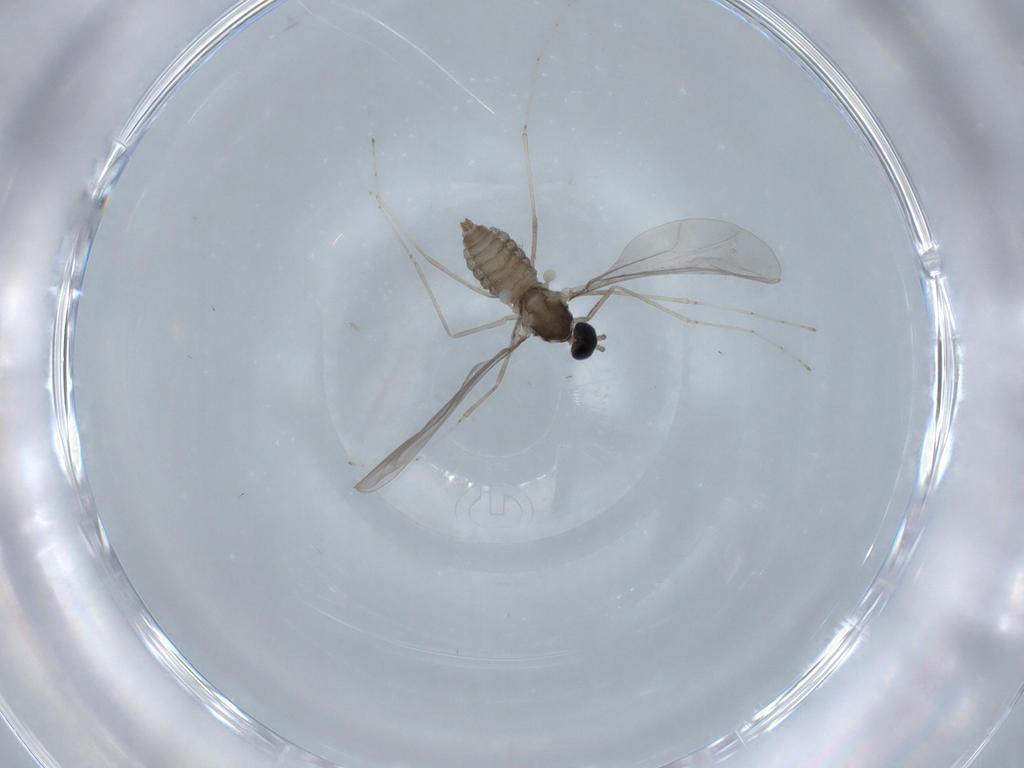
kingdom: Animalia
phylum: Arthropoda
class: Insecta
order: Diptera
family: Cecidomyiidae
